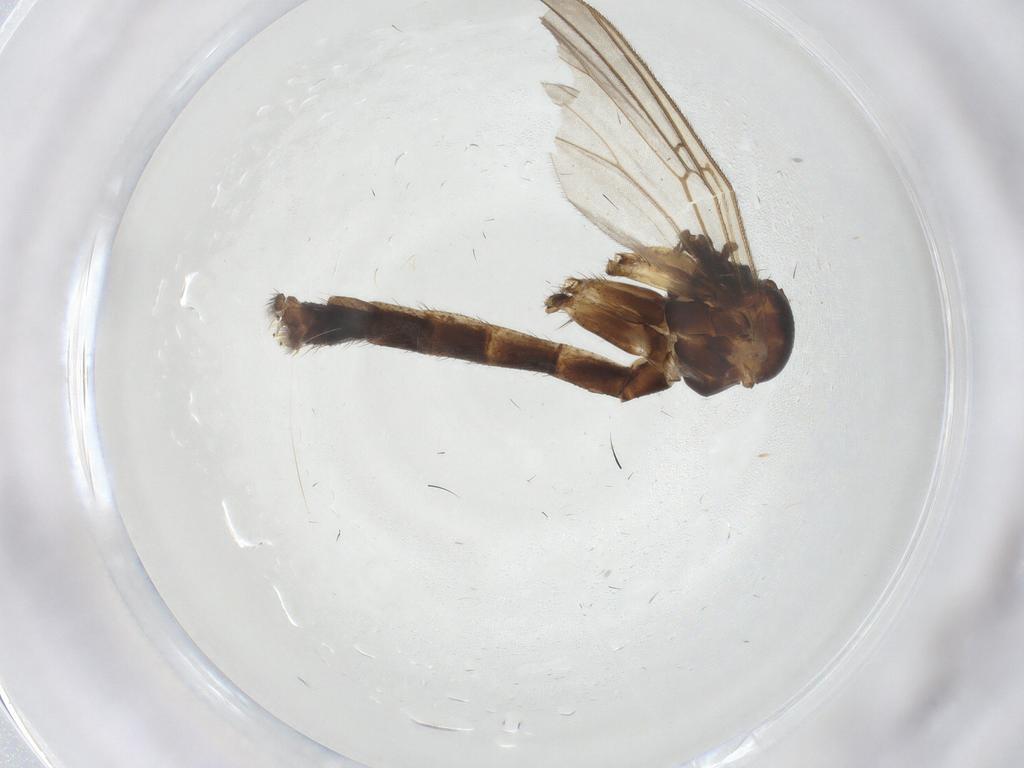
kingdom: Animalia
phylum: Arthropoda
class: Insecta
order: Diptera
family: Mycetophilidae
